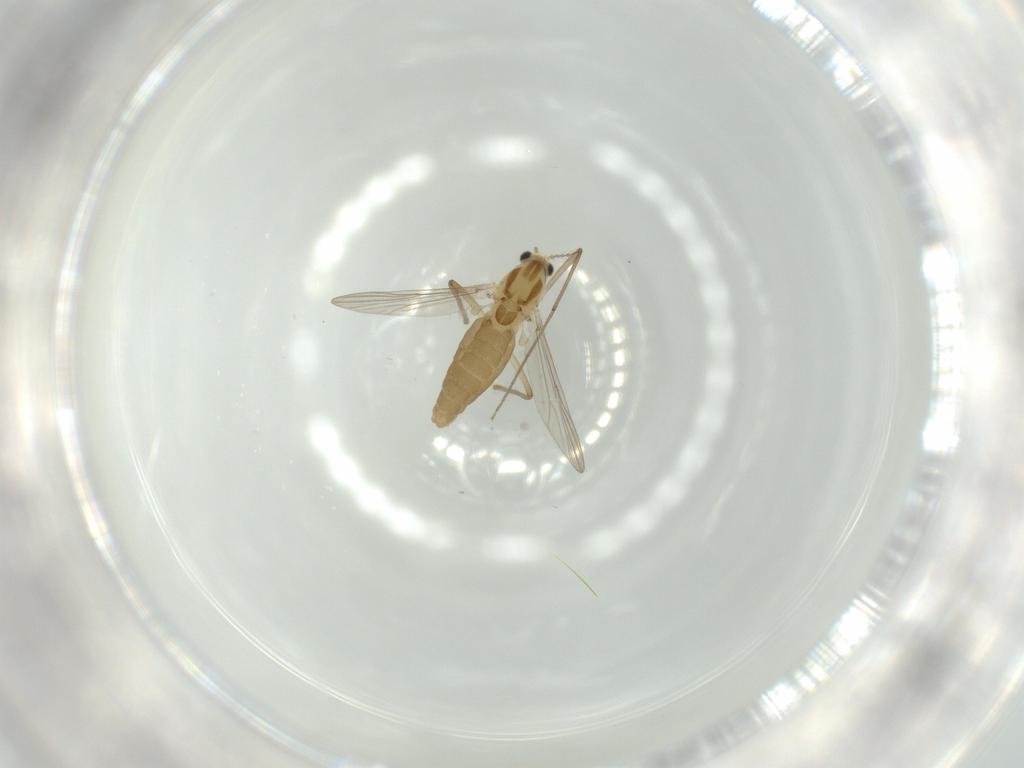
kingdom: Animalia
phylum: Arthropoda
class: Insecta
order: Diptera
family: Chironomidae
